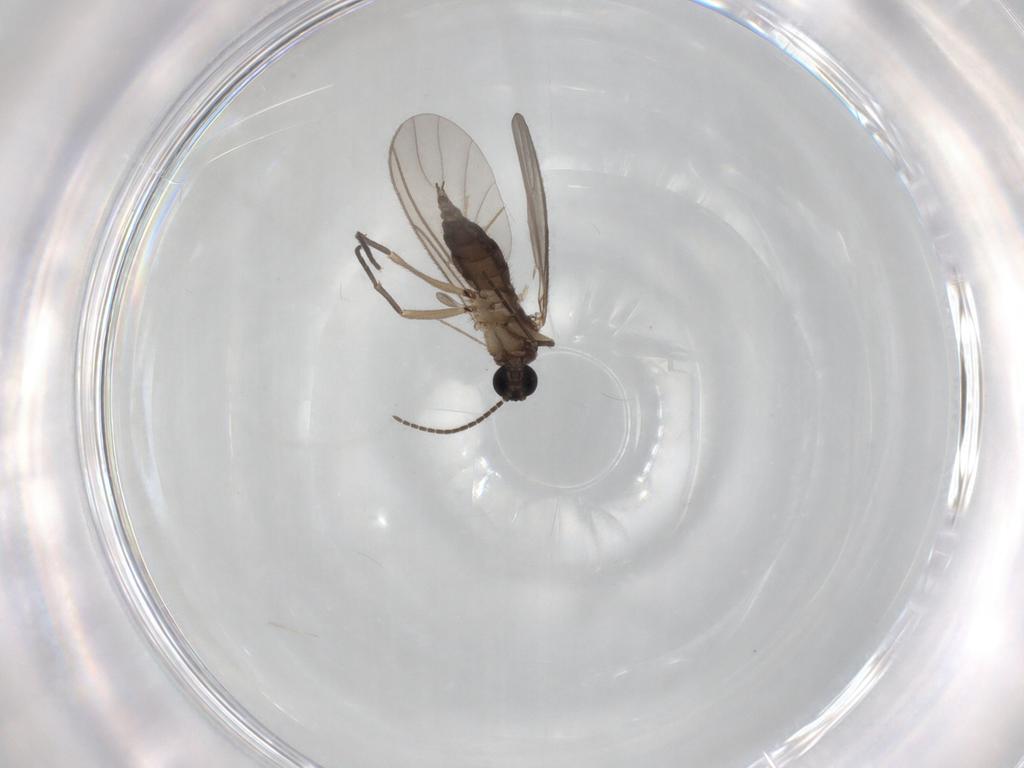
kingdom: Animalia
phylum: Arthropoda
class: Insecta
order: Diptera
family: Sciaridae
